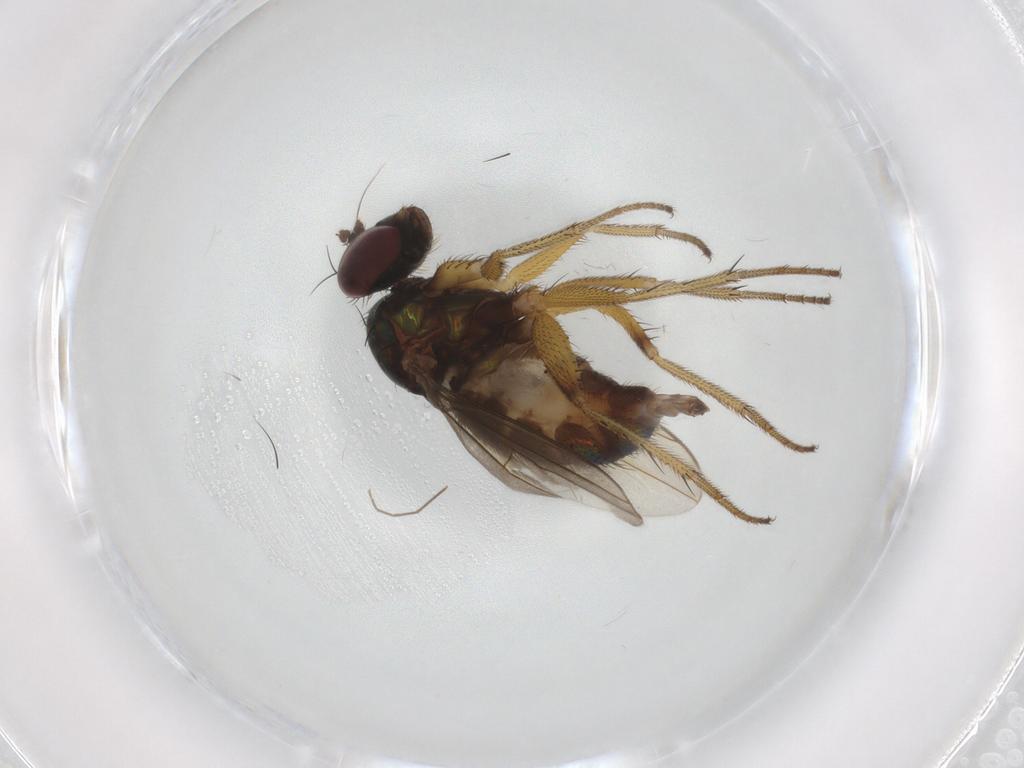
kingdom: Animalia
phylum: Arthropoda
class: Insecta
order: Diptera
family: Dolichopodidae
